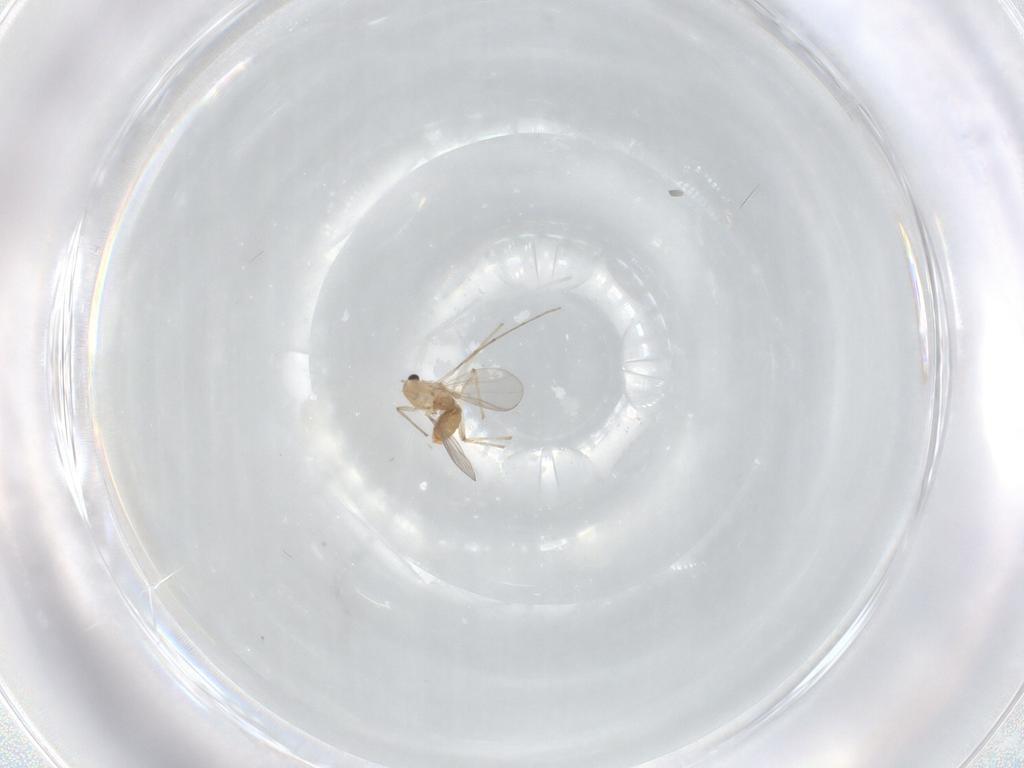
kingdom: Animalia
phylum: Arthropoda
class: Insecta
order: Diptera
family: Chironomidae
